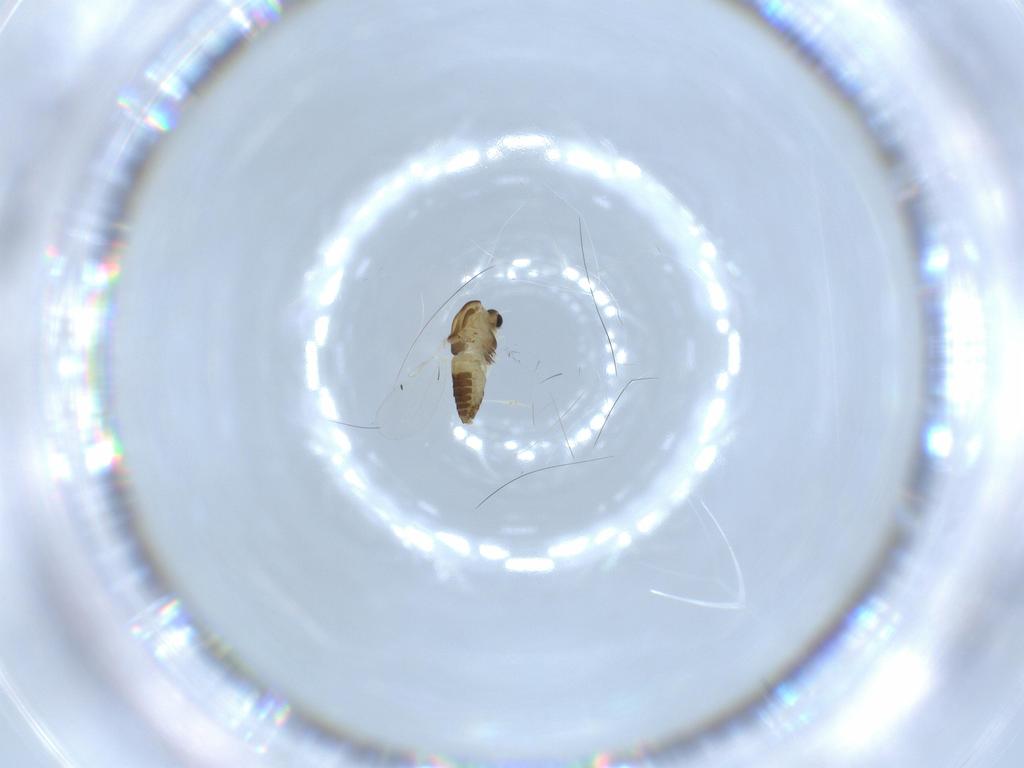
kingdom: Animalia
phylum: Arthropoda
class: Insecta
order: Diptera
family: Chironomidae
